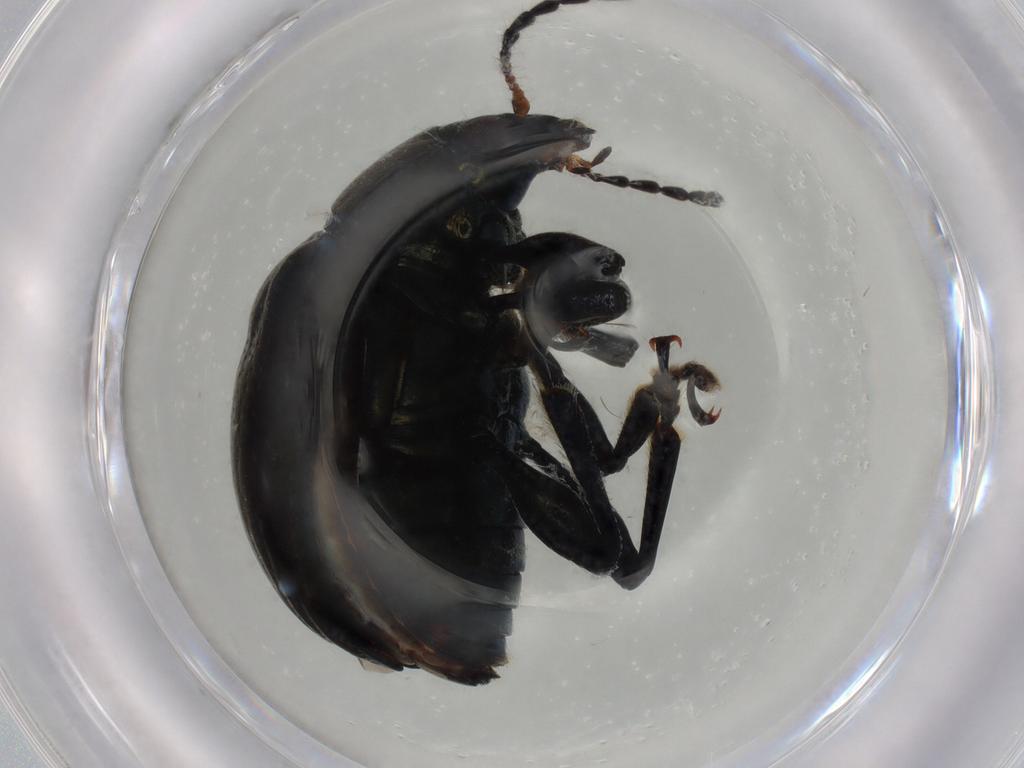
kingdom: Animalia
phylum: Arthropoda
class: Insecta
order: Coleoptera
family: Chrysomelidae
